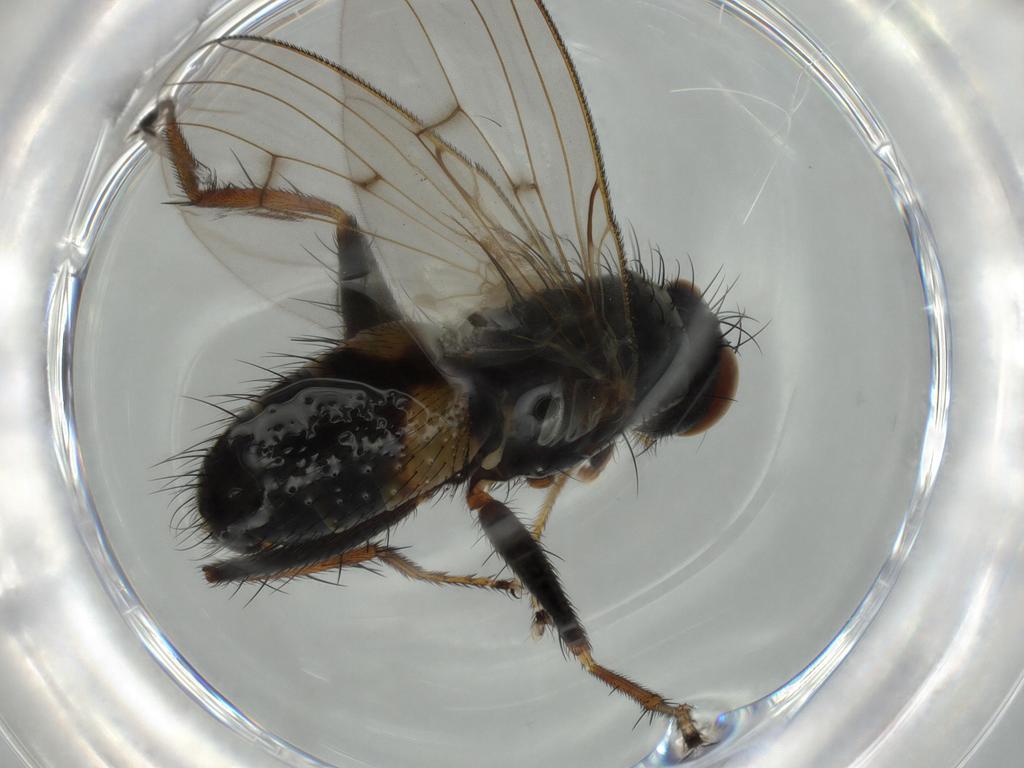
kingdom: Animalia
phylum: Arthropoda
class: Insecta
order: Diptera
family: Muscidae
